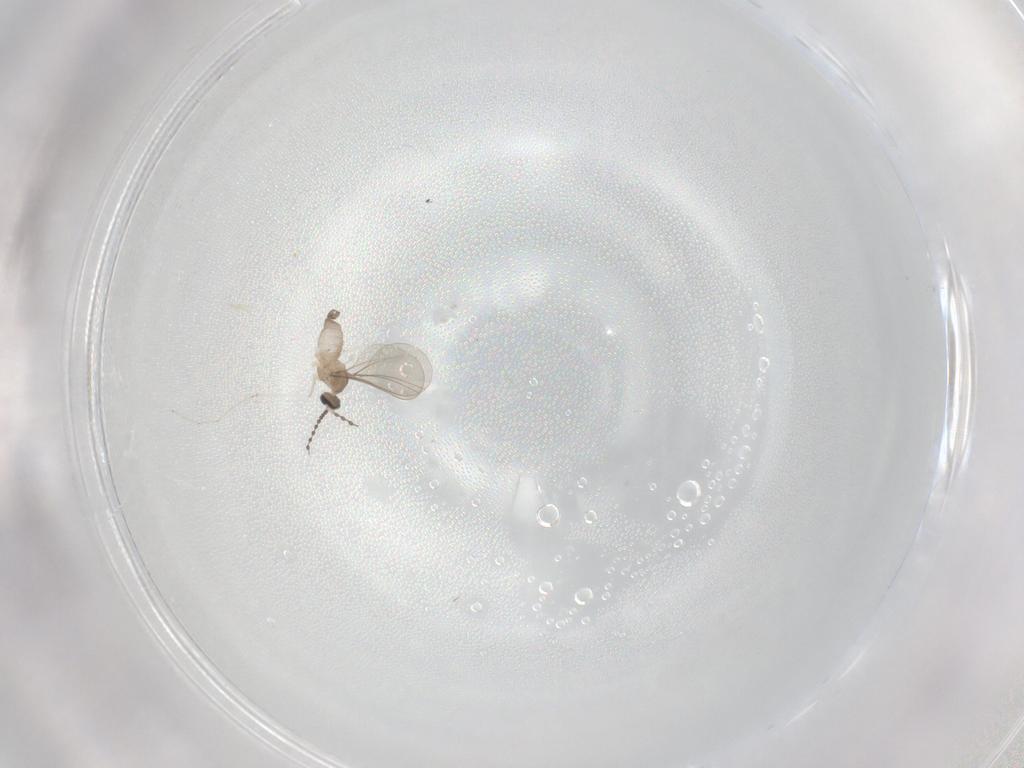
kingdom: Animalia
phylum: Arthropoda
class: Insecta
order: Diptera
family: Cecidomyiidae
